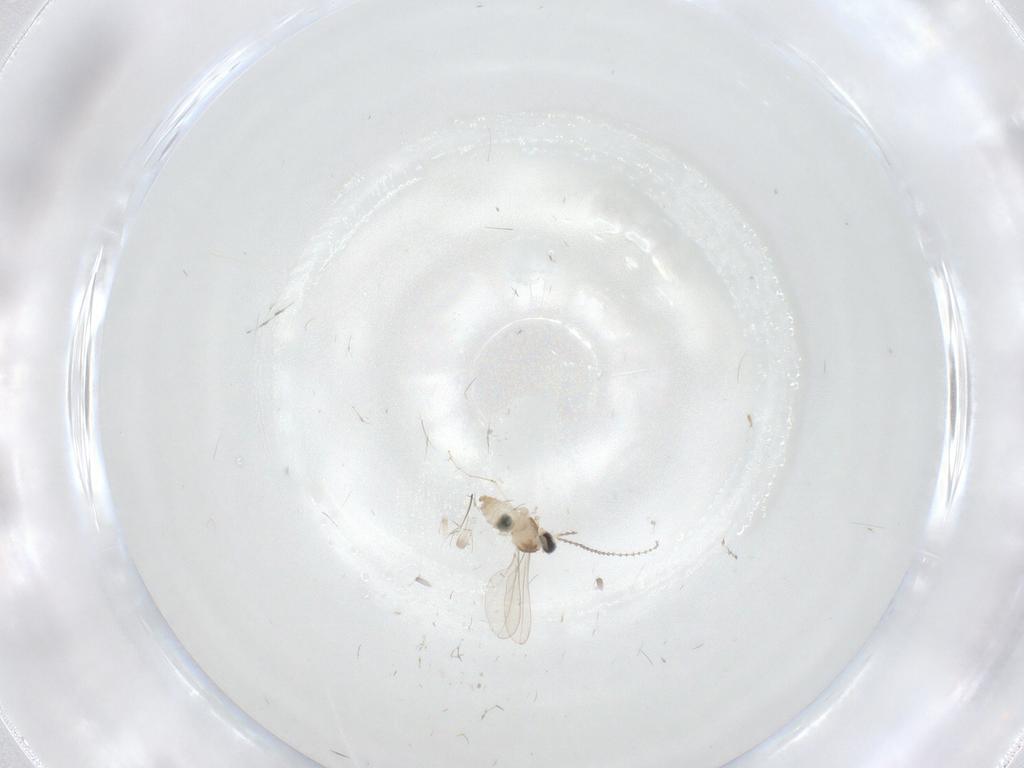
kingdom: Animalia
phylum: Arthropoda
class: Insecta
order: Diptera
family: Cecidomyiidae
